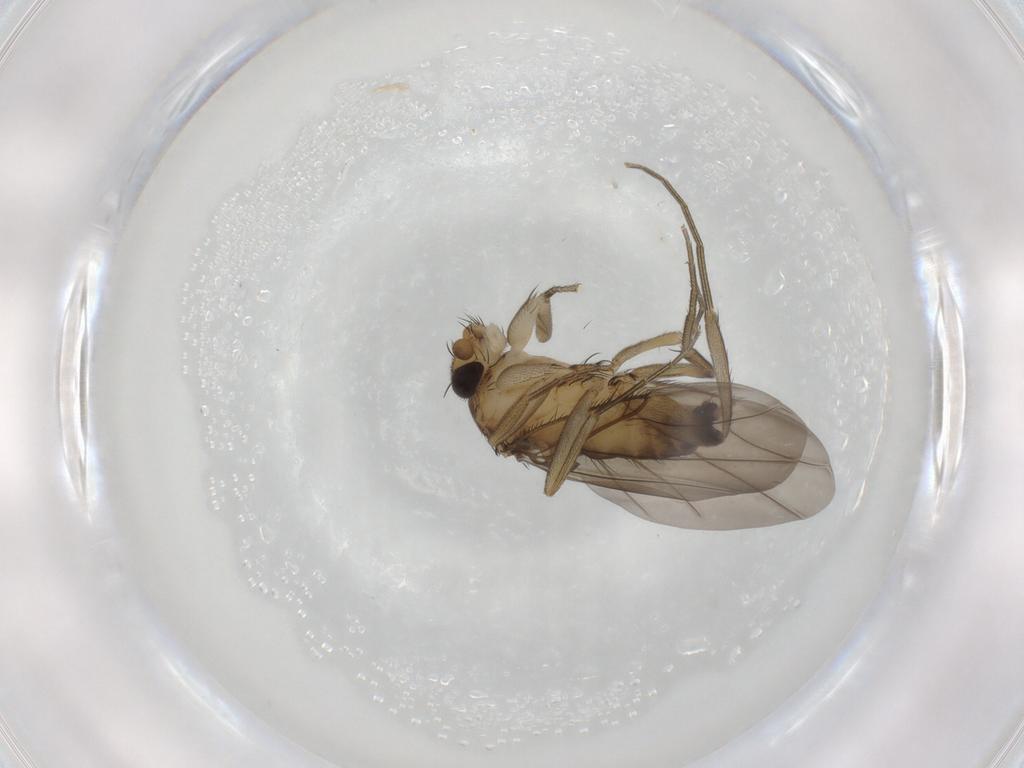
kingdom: Animalia
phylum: Arthropoda
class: Insecta
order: Diptera
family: Phoridae
